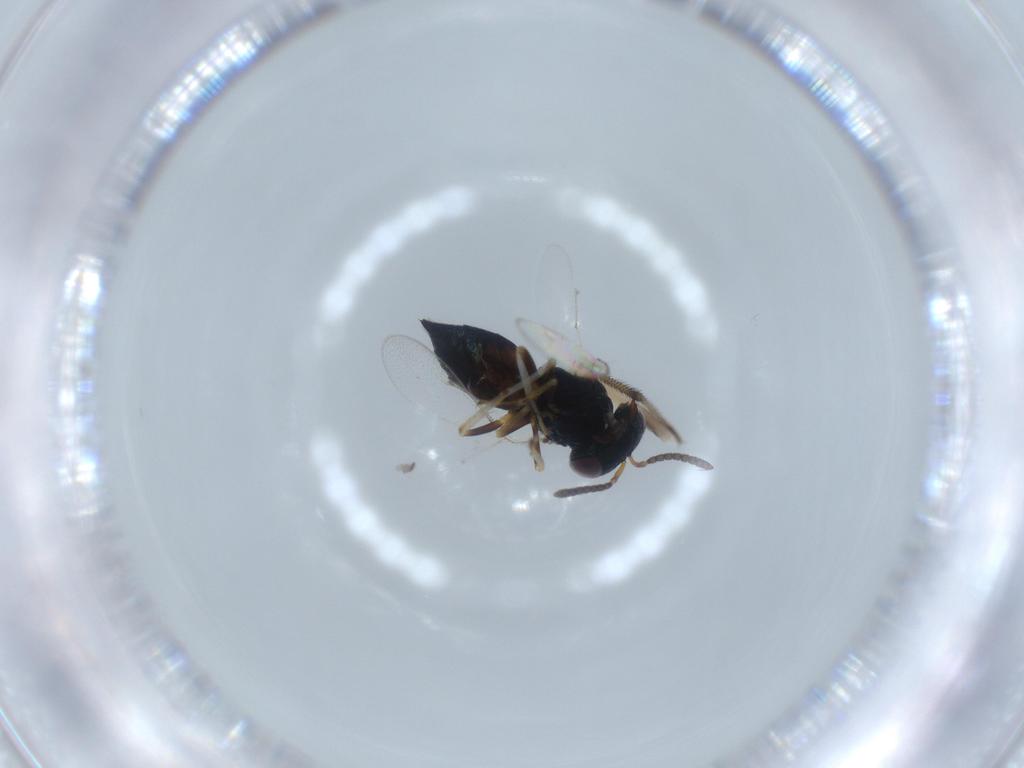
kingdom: Animalia
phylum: Arthropoda
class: Insecta
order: Hymenoptera
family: Pteromalidae
